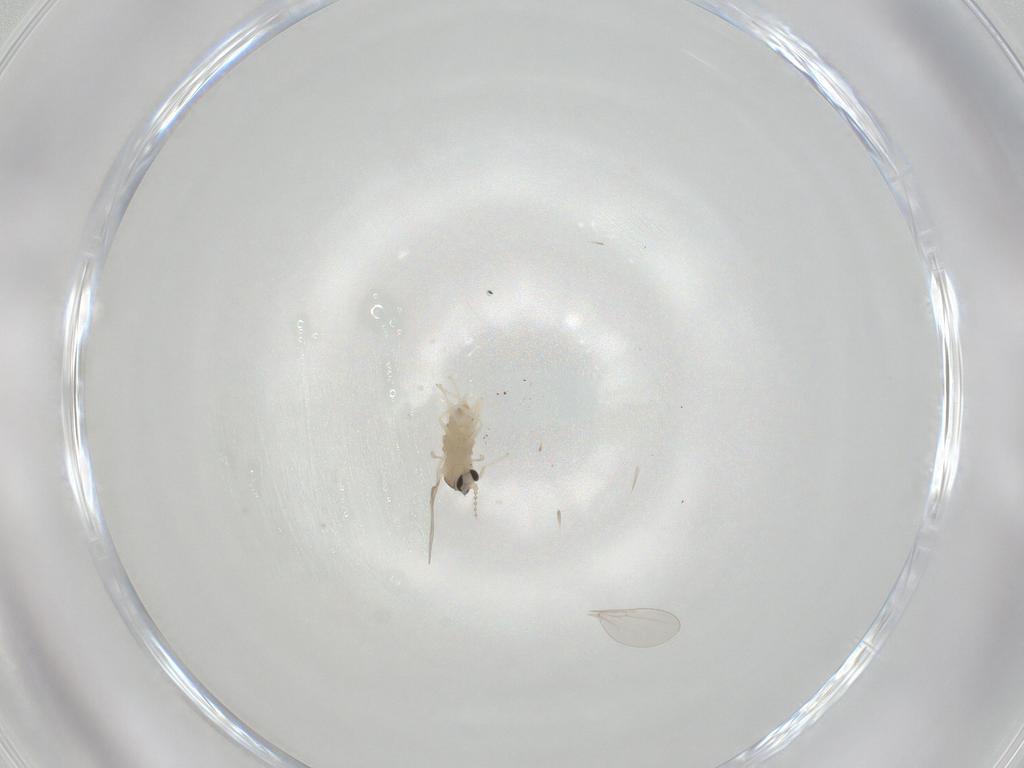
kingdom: Animalia
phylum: Arthropoda
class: Insecta
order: Diptera
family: Cecidomyiidae
